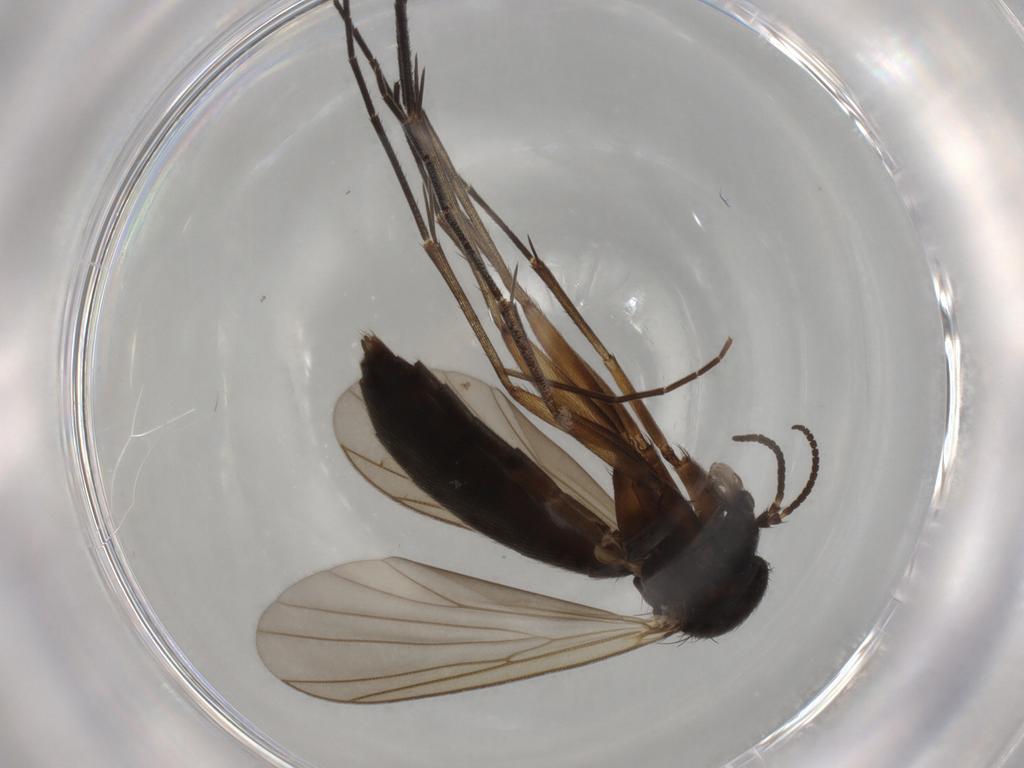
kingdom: Animalia
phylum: Arthropoda
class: Insecta
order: Diptera
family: Mycetophilidae
